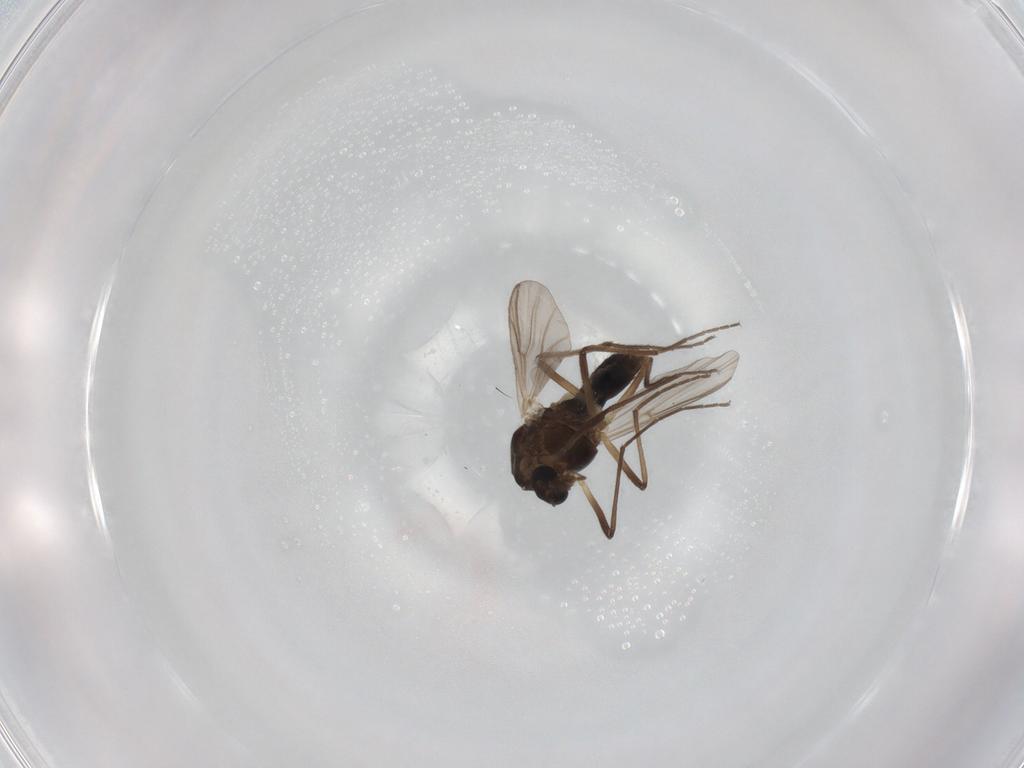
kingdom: Animalia
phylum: Arthropoda
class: Insecta
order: Diptera
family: Chironomidae
